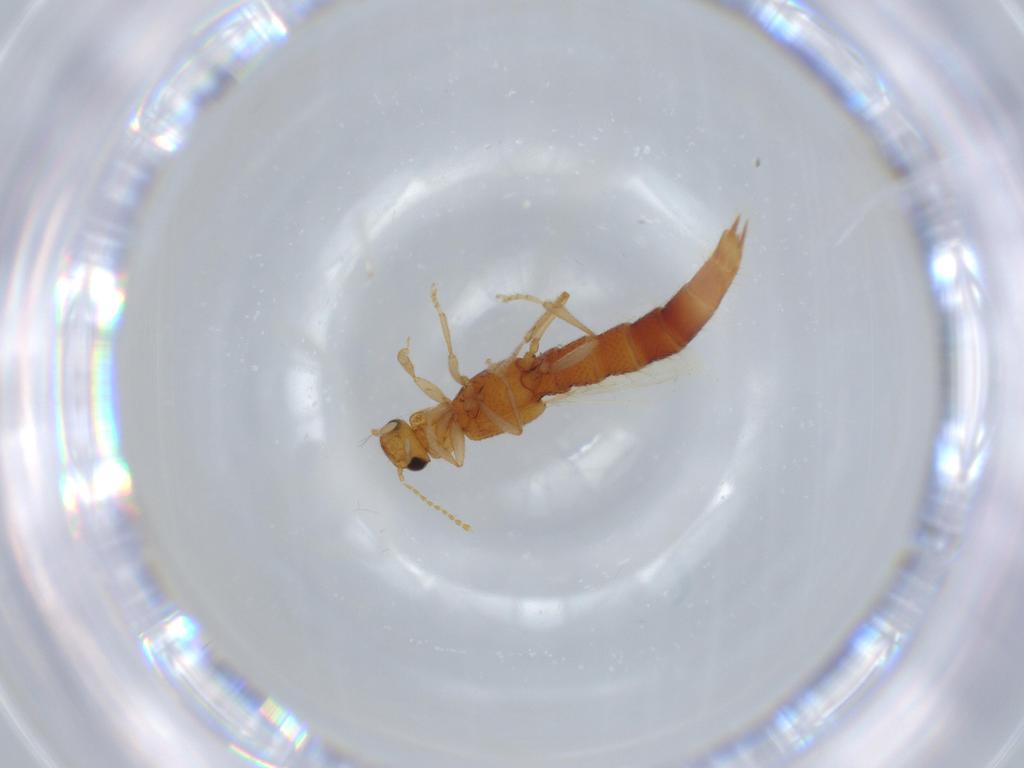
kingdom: Animalia
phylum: Arthropoda
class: Insecta
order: Coleoptera
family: Staphylinidae
